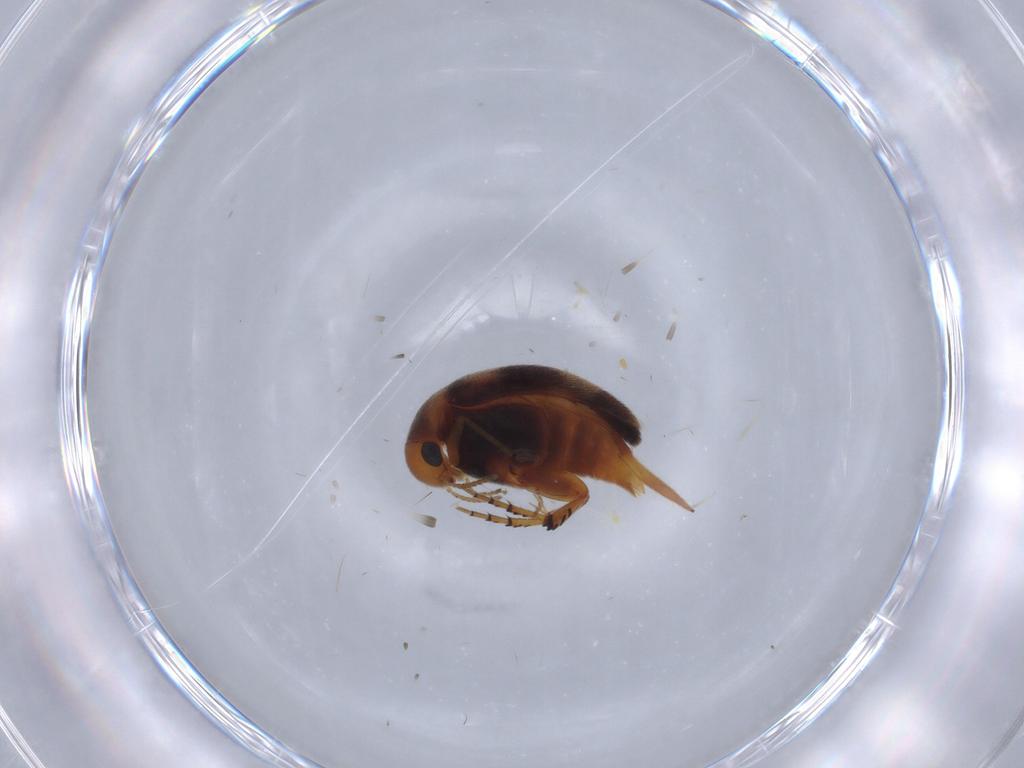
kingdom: Animalia
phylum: Arthropoda
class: Insecta
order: Coleoptera
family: Mordellidae
